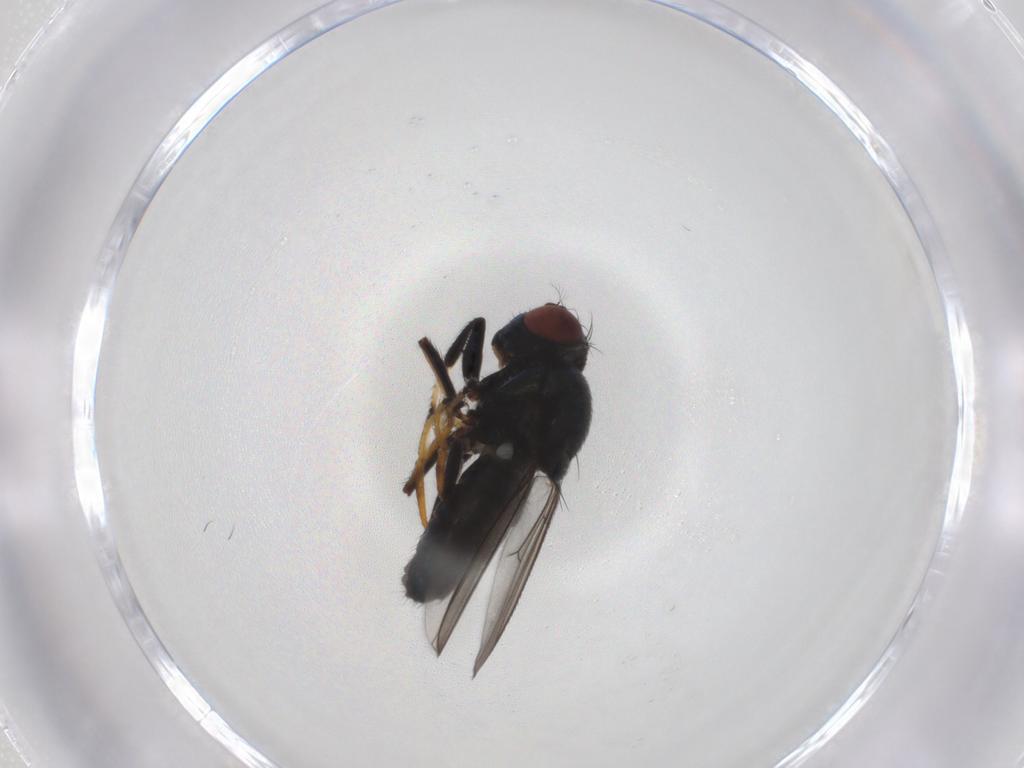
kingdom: Animalia
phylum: Arthropoda
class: Insecta
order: Diptera
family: Ephydridae
